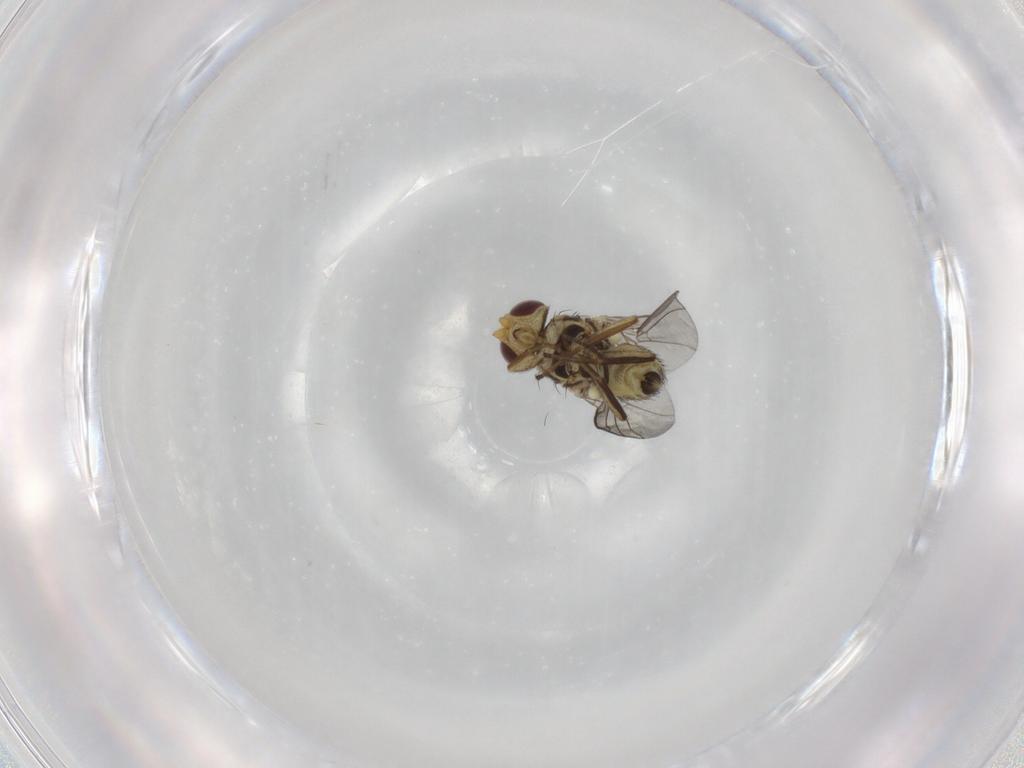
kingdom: Animalia
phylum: Arthropoda
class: Insecta
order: Diptera
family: Agromyzidae
